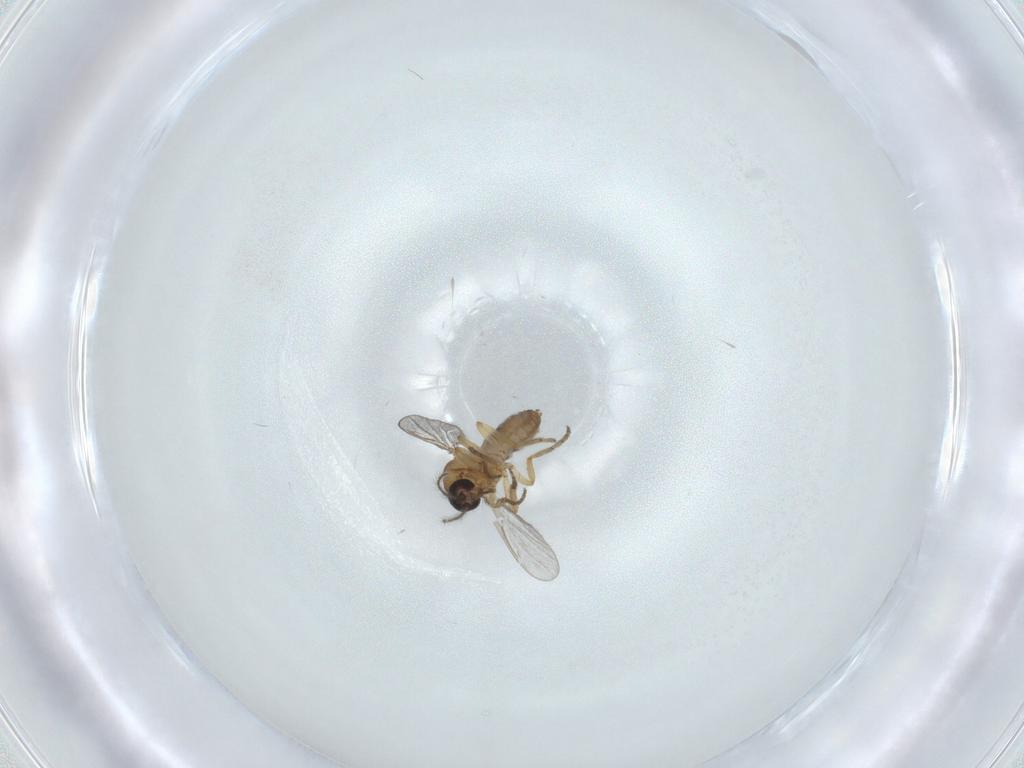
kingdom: Animalia
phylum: Arthropoda
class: Insecta
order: Diptera
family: Ceratopogonidae
